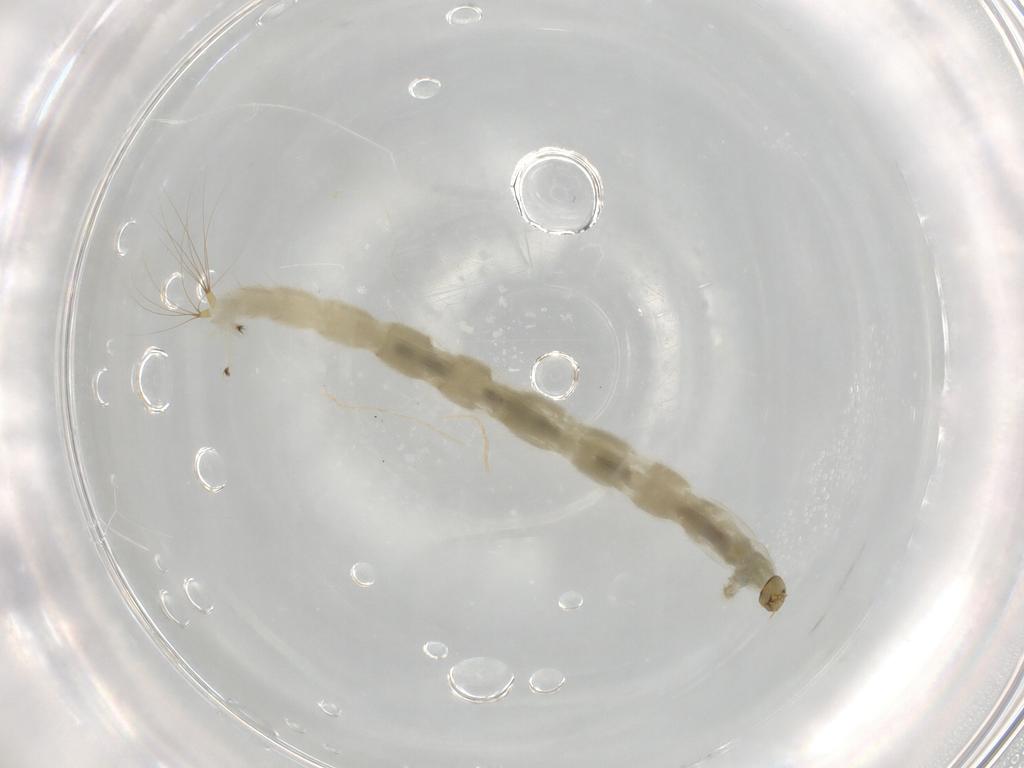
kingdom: Animalia
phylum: Arthropoda
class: Insecta
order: Diptera
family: Chironomidae
